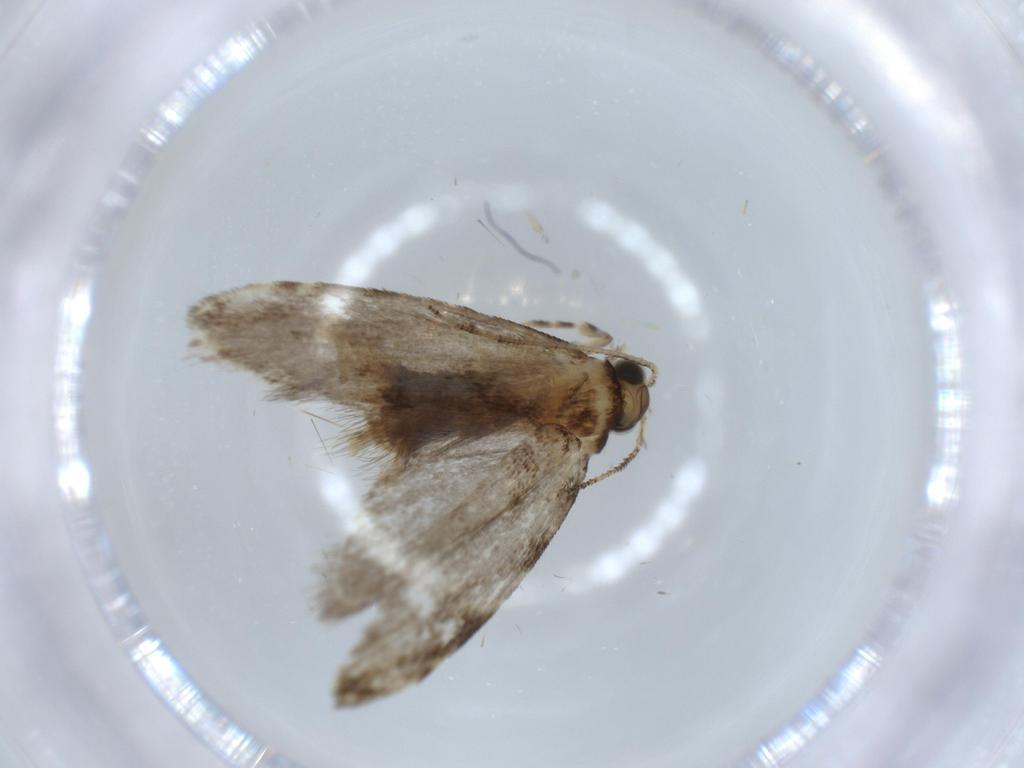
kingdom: Animalia
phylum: Arthropoda
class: Insecta
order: Lepidoptera
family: Tineidae
